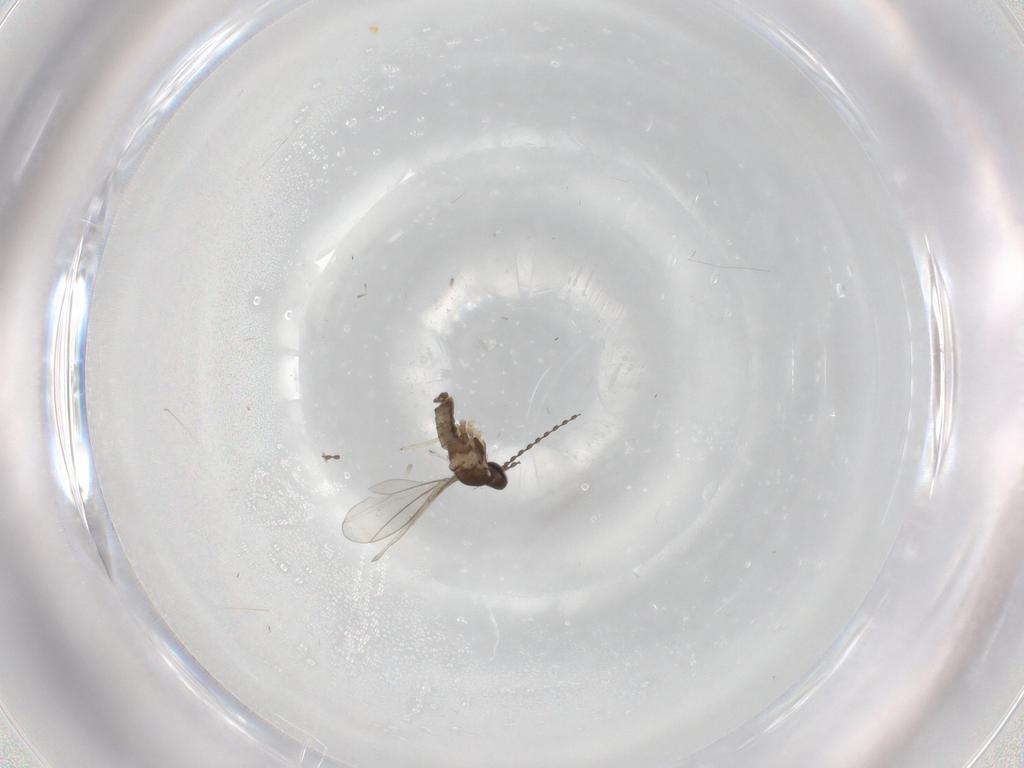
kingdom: Animalia
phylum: Arthropoda
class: Insecta
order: Diptera
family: Cecidomyiidae
